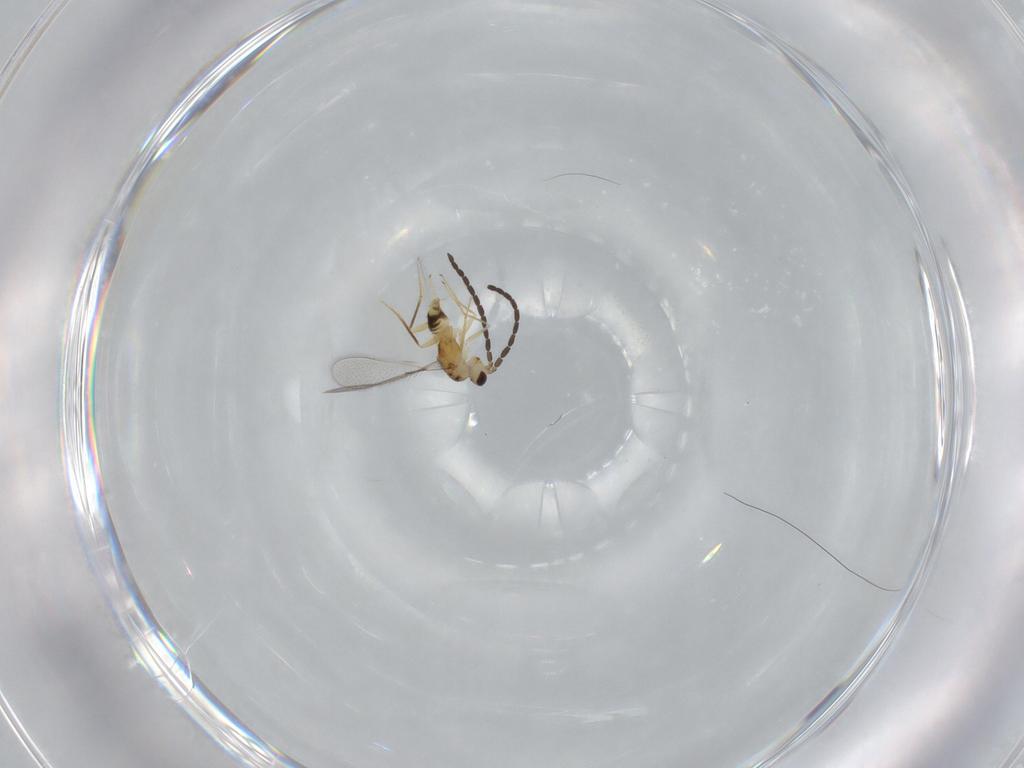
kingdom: Animalia
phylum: Arthropoda
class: Insecta
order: Hymenoptera
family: Mymaridae
